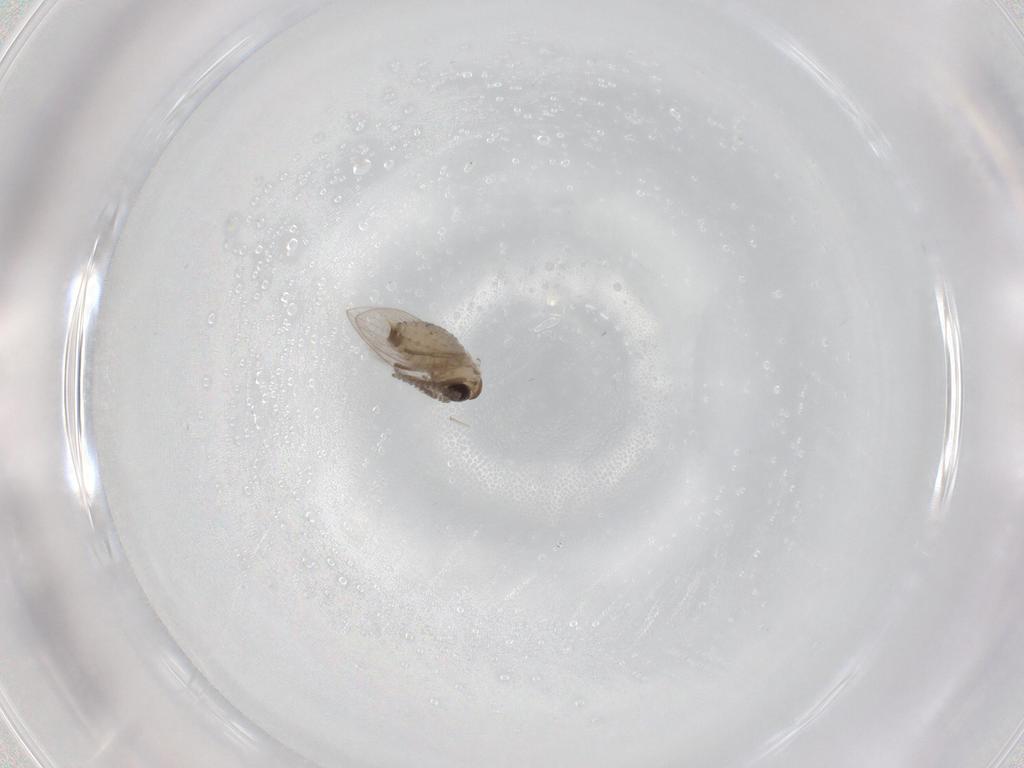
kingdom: Animalia
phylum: Arthropoda
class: Insecta
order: Diptera
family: Psychodidae
